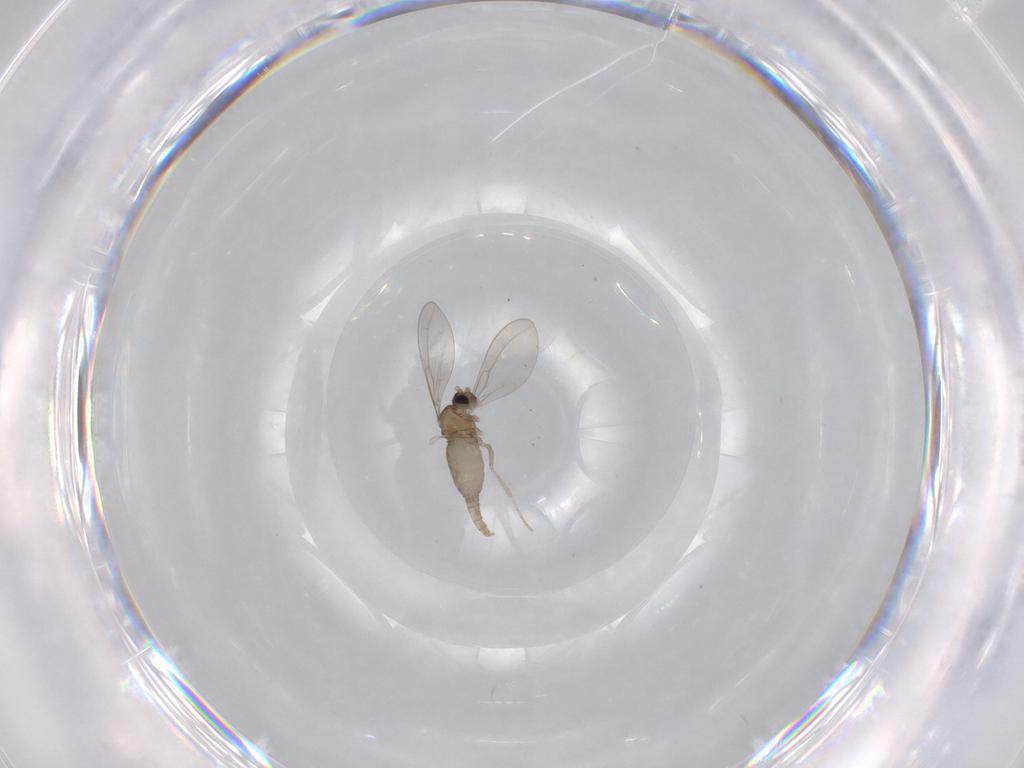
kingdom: Animalia
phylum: Arthropoda
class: Insecta
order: Diptera
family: Cecidomyiidae
